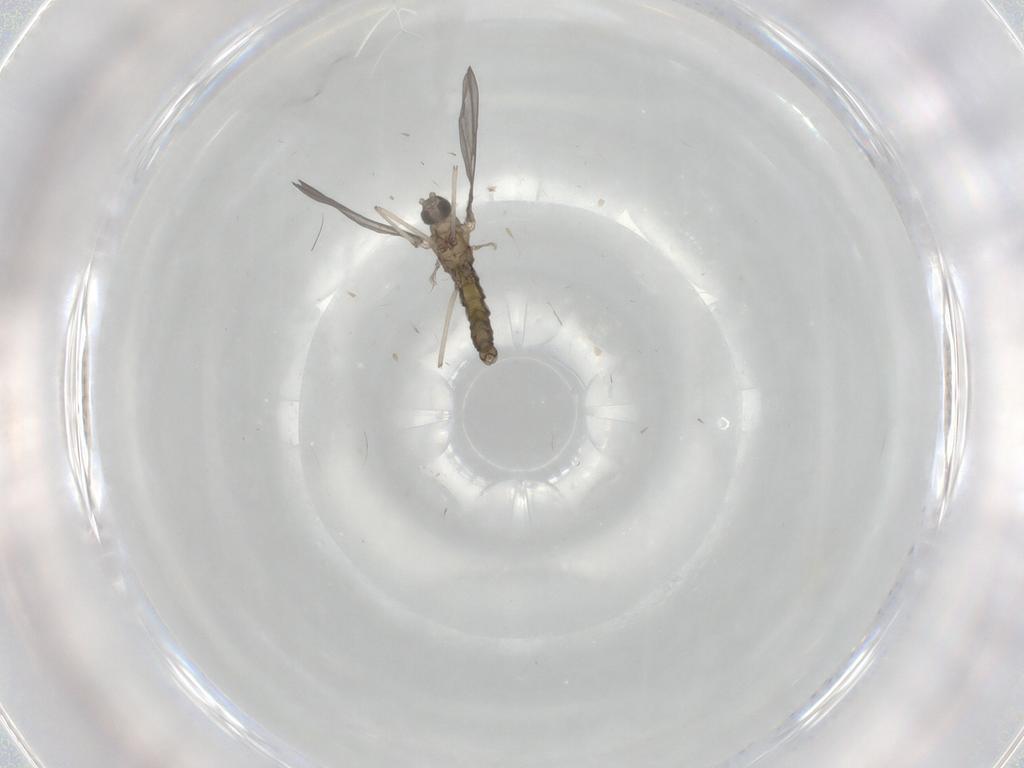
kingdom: Animalia
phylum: Arthropoda
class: Insecta
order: Diptera
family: Cecidomyiidae
